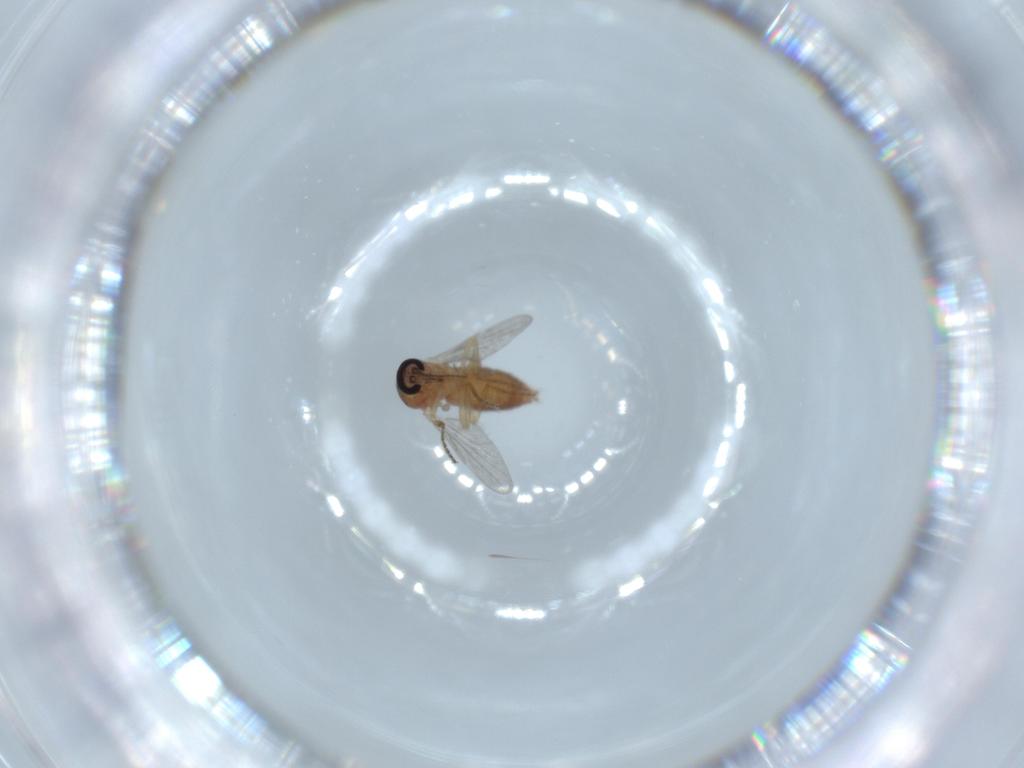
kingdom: Animalia
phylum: Arthropoda
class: Insecta
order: Diptera
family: Ceratopogonidae
